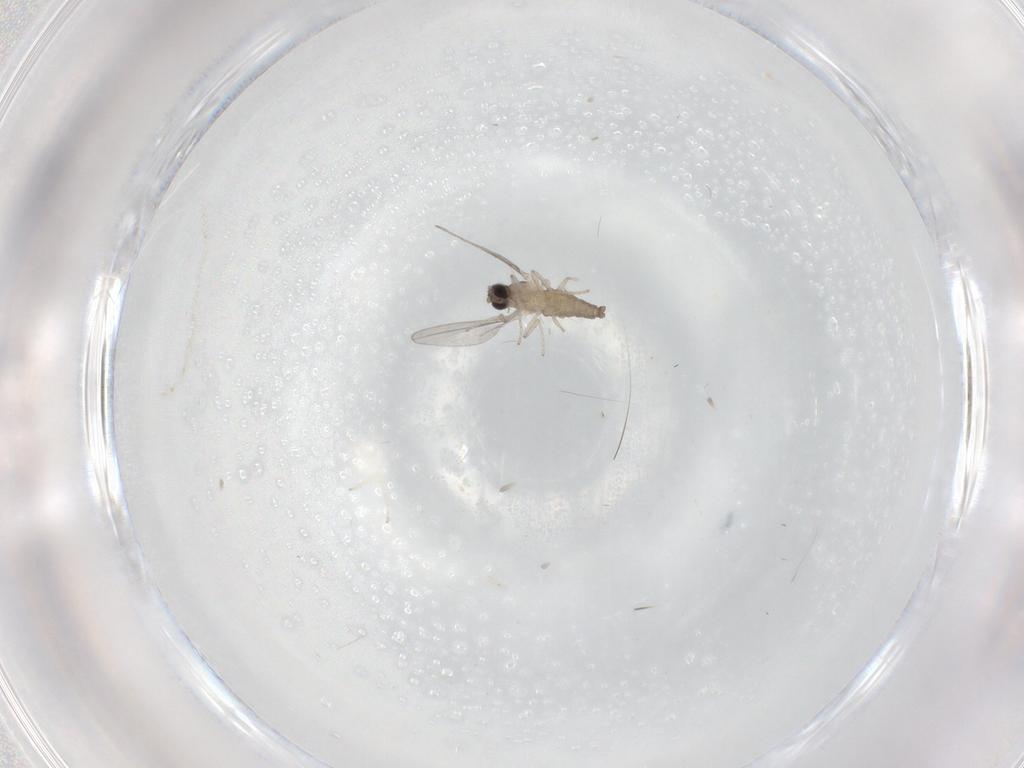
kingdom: Animalia
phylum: Arthropoda
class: Insecta
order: Diptera
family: Cecidomyiidae
